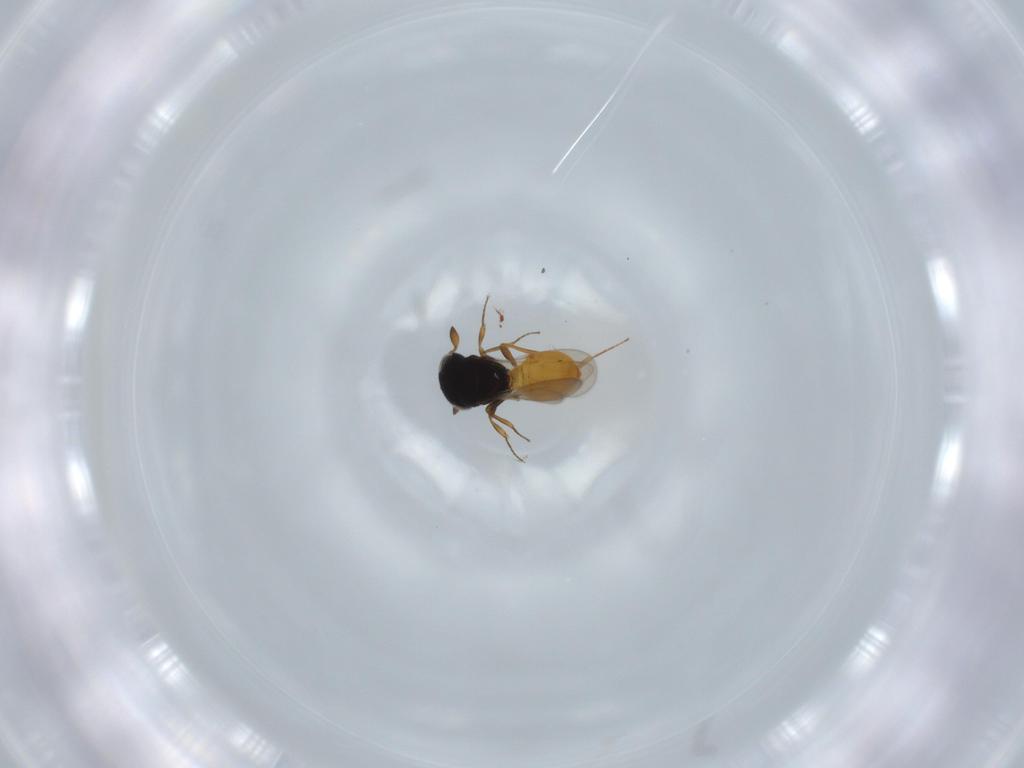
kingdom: Animalia
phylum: Arthropoda
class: Insecta
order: Hymenoptera
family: Scelionidae
